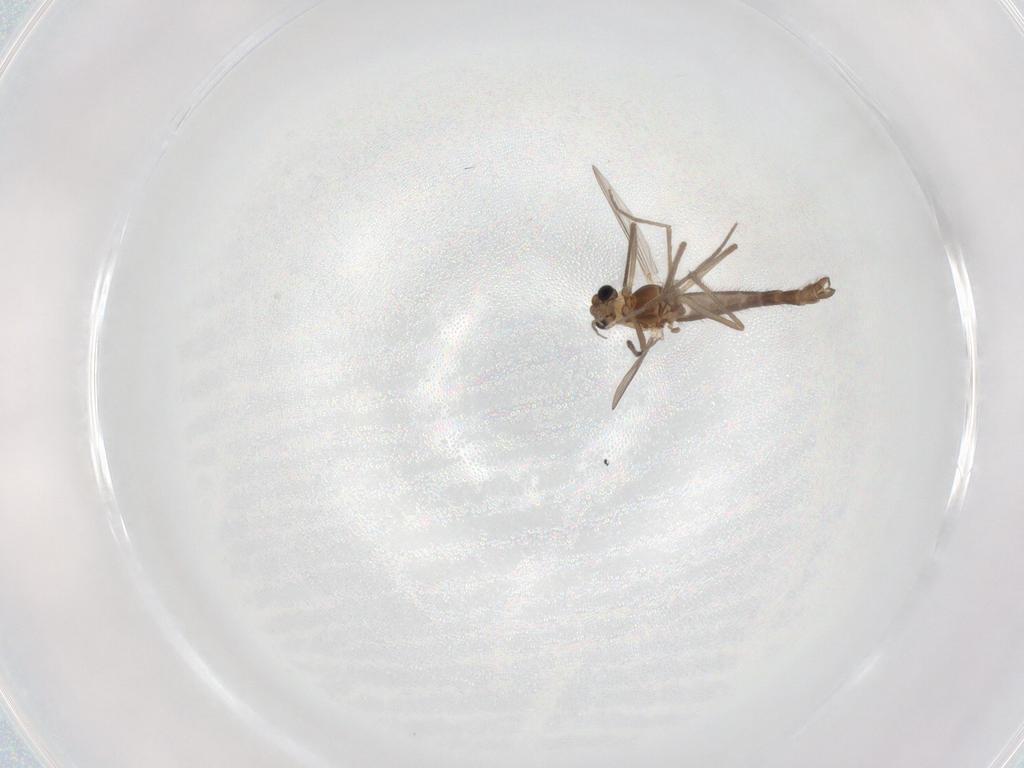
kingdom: Animalia
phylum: Arthropoda
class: Insecta
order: Diptera
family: Chironomidae
